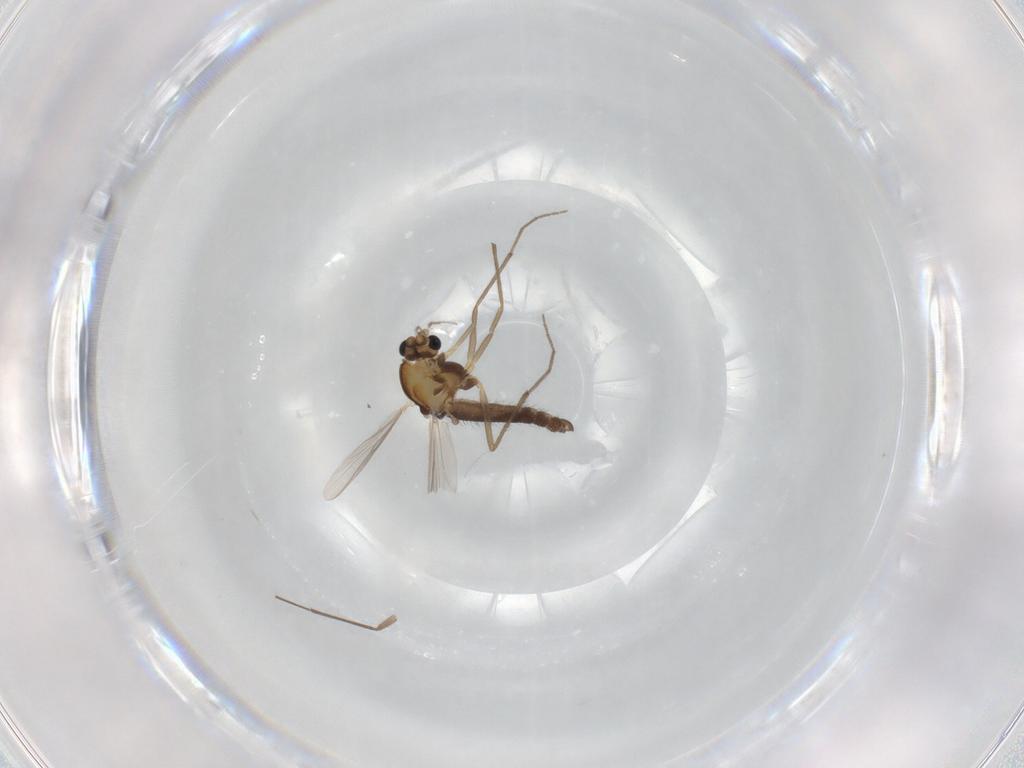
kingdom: Animalia
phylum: Arthropoda
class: Insecta
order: Diptera
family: Chironomidae
